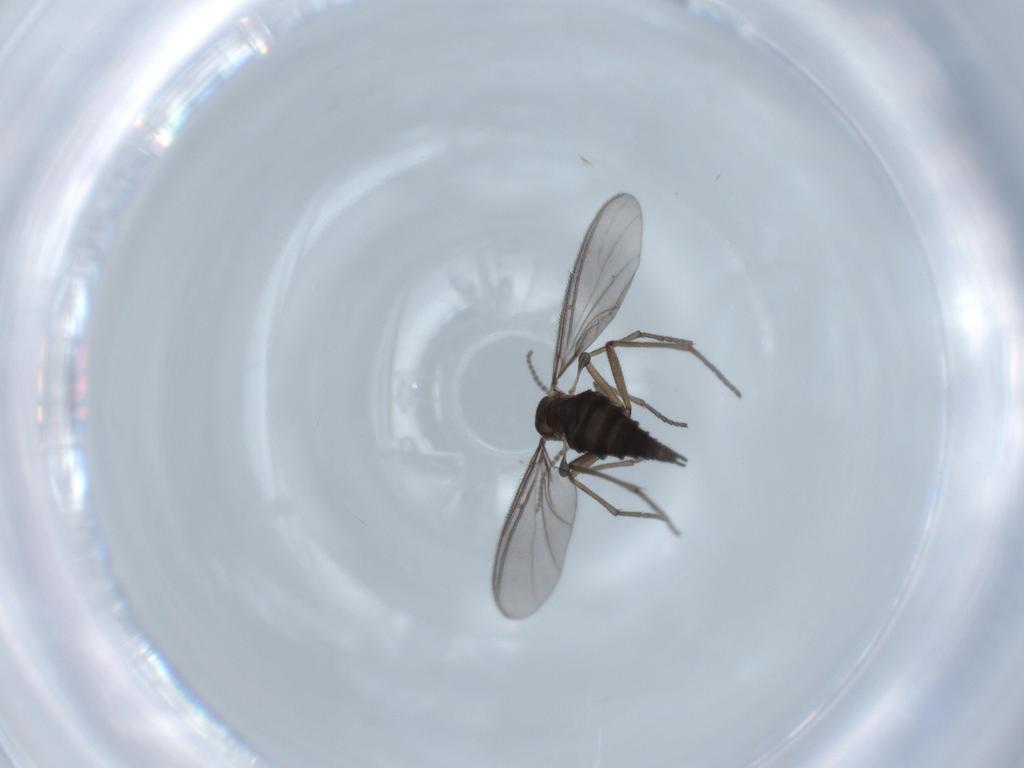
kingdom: Animalia
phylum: Arthropoda
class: Insecta
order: Diptera
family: Sciaridae
